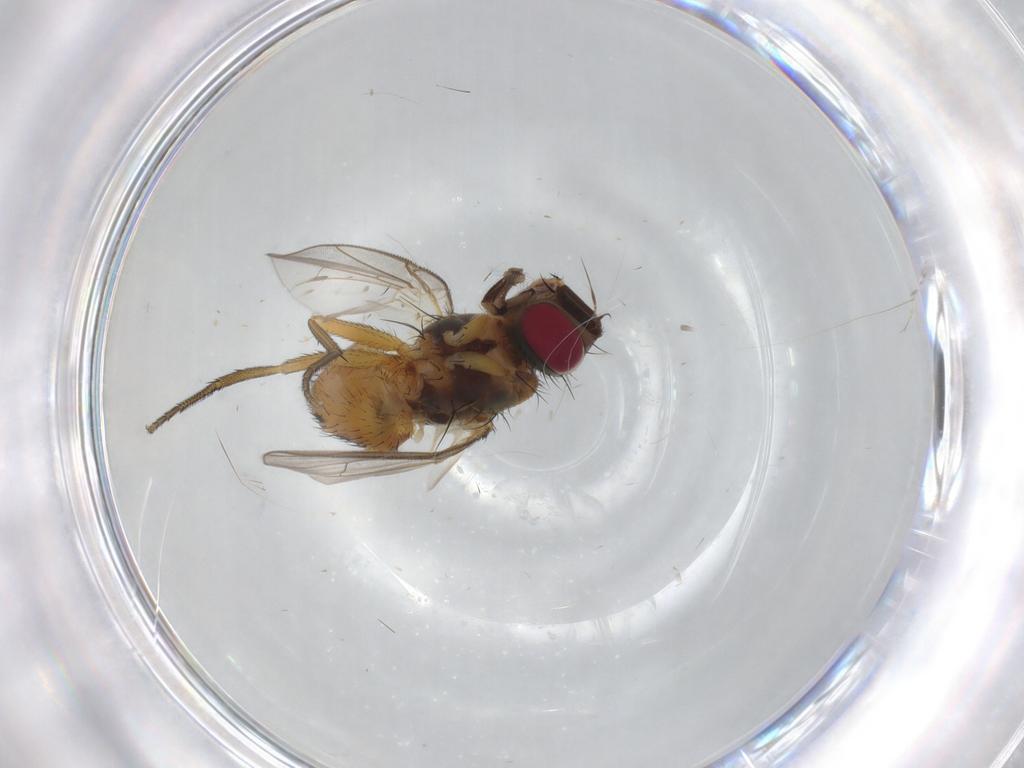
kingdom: Animalia
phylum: Arthropoda
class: Insecta
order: Diptera
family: Muscidae
